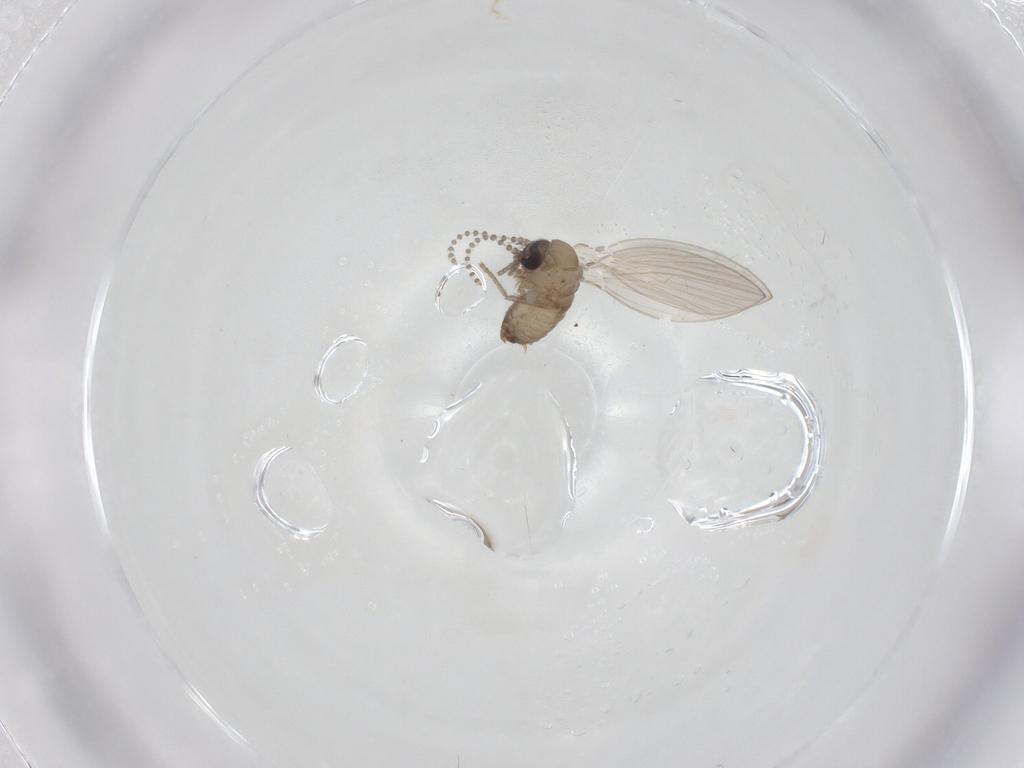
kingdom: Animalia
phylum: Arthropoda
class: Insecta
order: Diptera
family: Psychodidae
